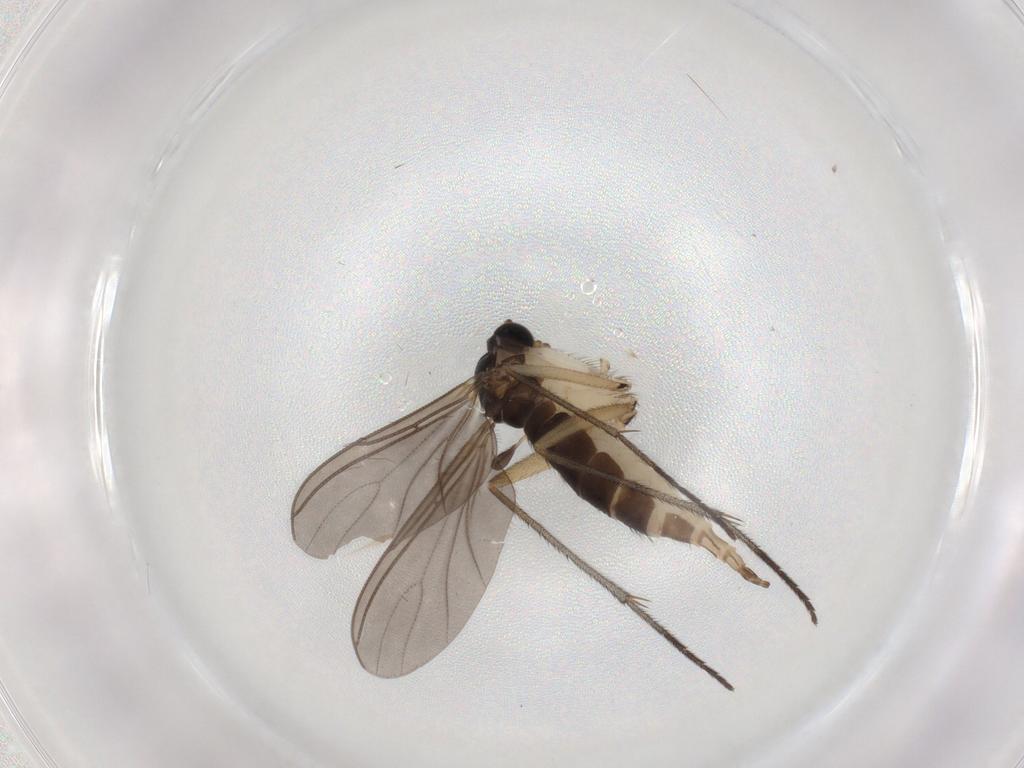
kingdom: Animalia
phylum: Arthropoda
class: Insecta
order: Diptera
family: Sciaridae
